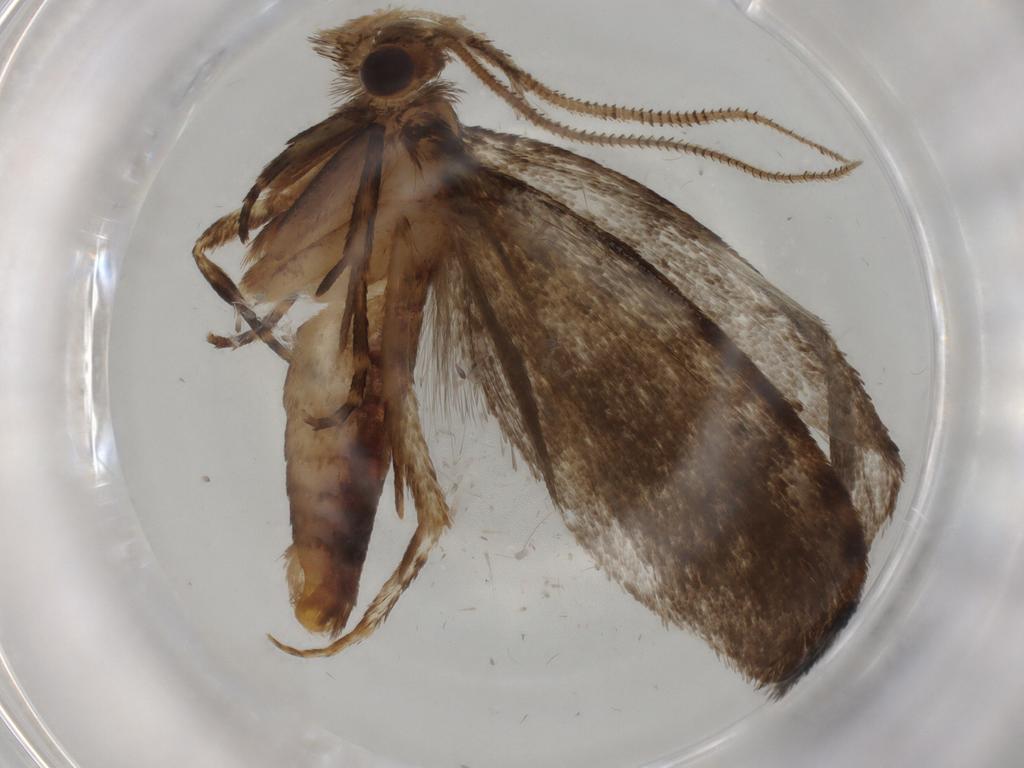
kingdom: Animalia
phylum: Arthropoda
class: Insecta
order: Lepidoptera
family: Tineidae
